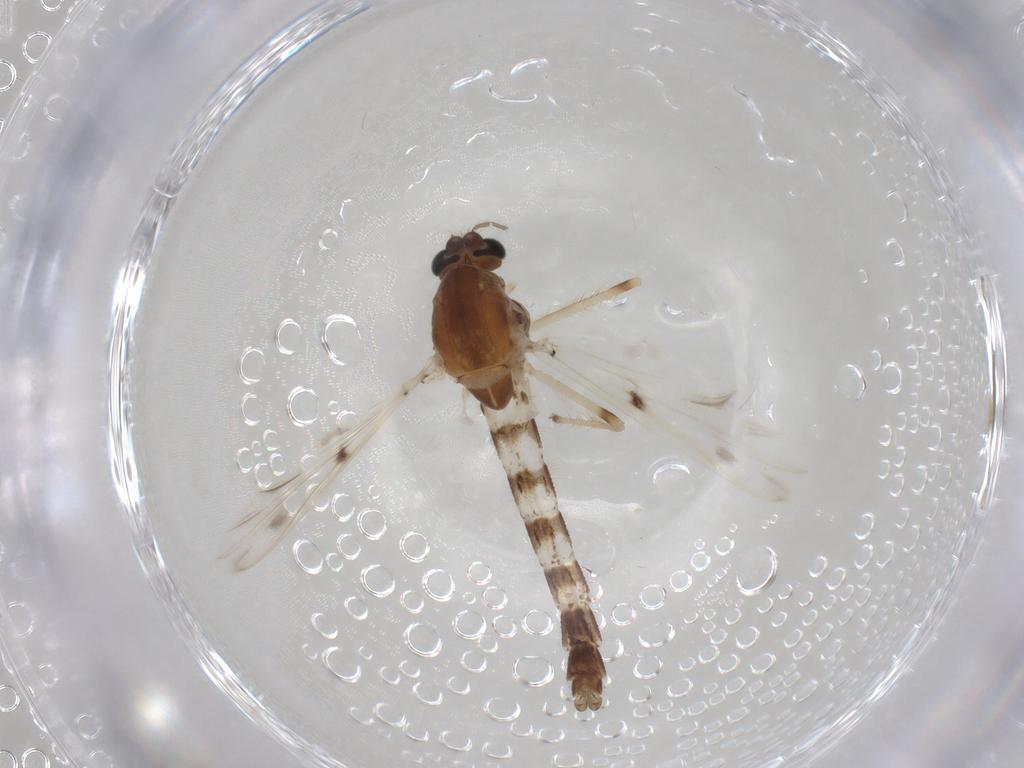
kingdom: Animalia
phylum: Arthropoda
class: Insecta
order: Diptera
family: Chironomidae
